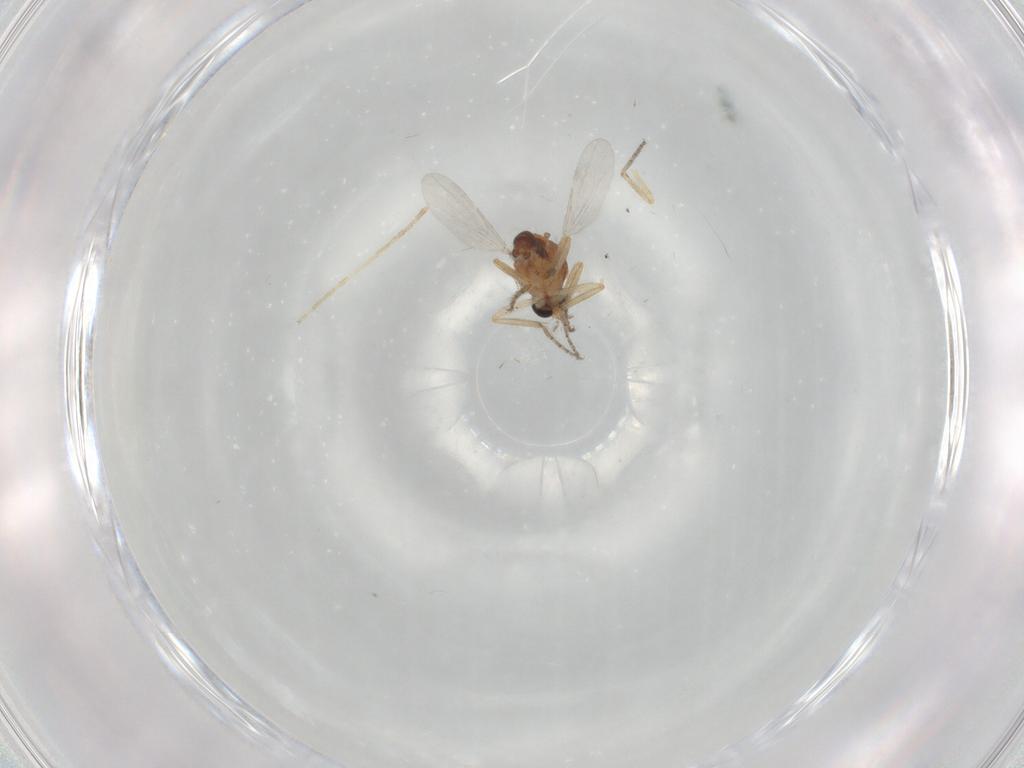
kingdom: Animalia
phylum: Arthropoda
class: Insecta
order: Diptera
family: Ceratopogonidae
